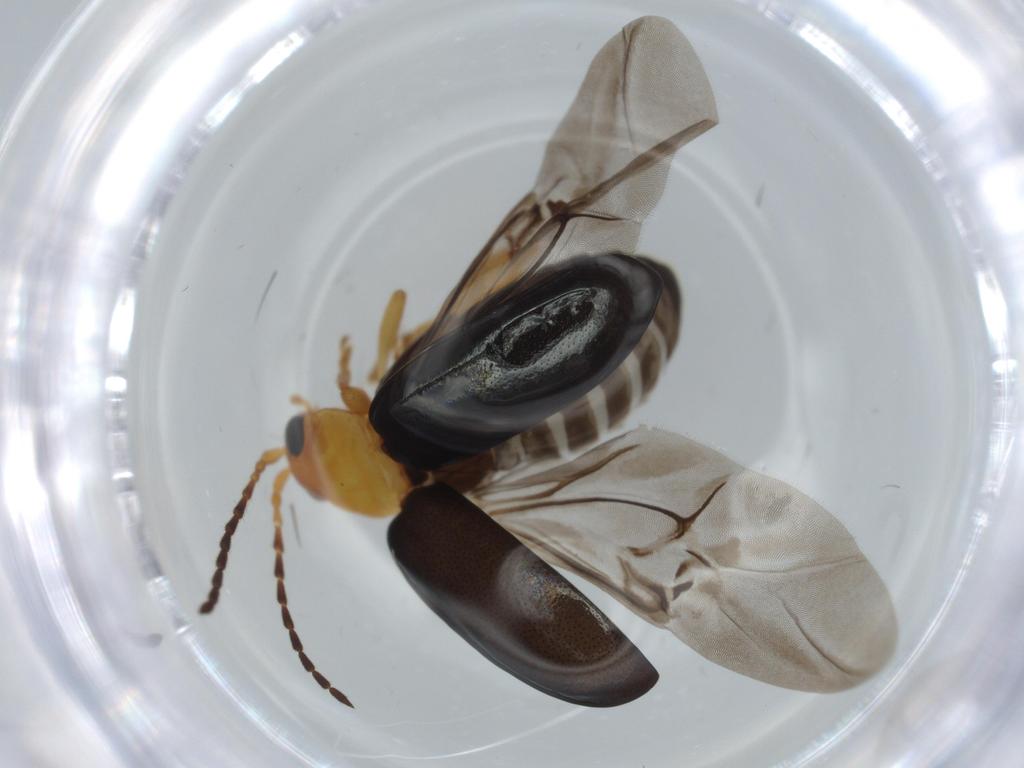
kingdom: Animalia
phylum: Arthropoda
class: Insecta
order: Coleoptera
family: Chrysomelidae
